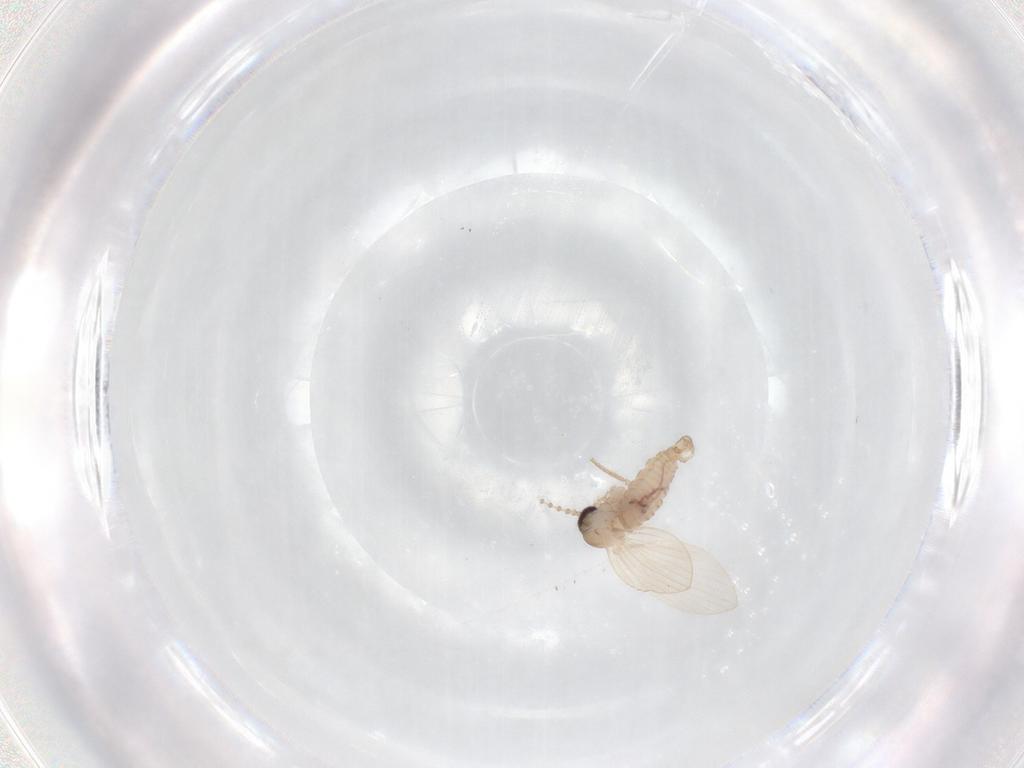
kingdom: Animalia
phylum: Arthropoda
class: Insecta
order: Diptera
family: Psychodidae
